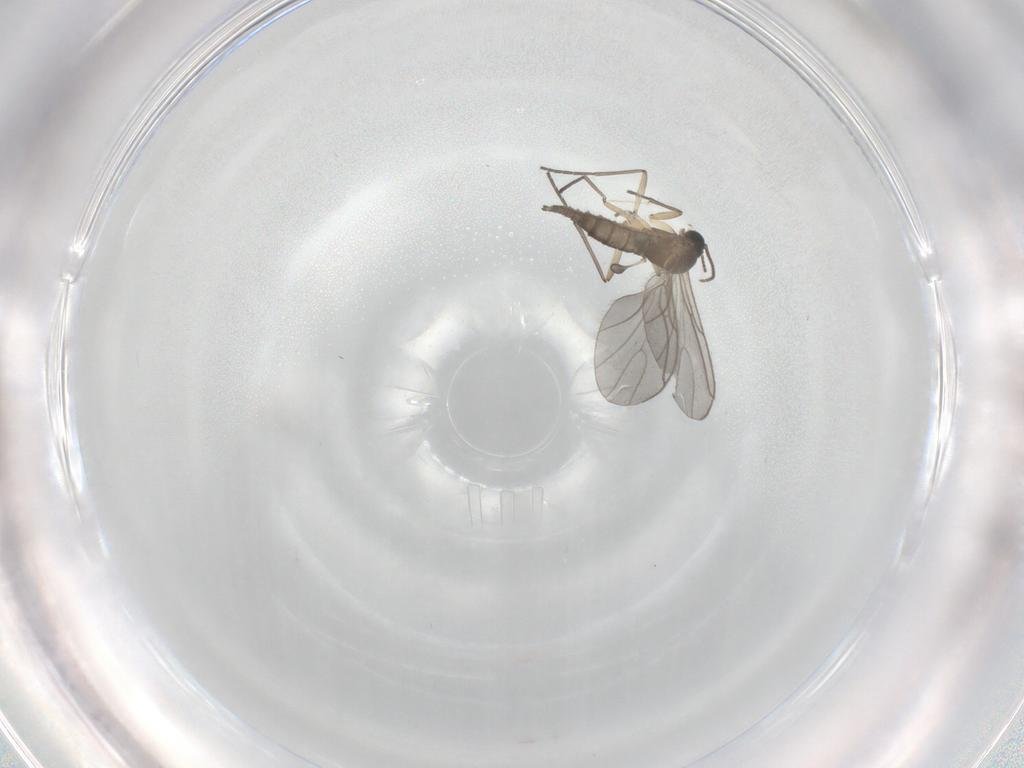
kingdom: Animalia
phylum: Arthropoda
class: Insecta
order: Diptera
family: Sciaridae
